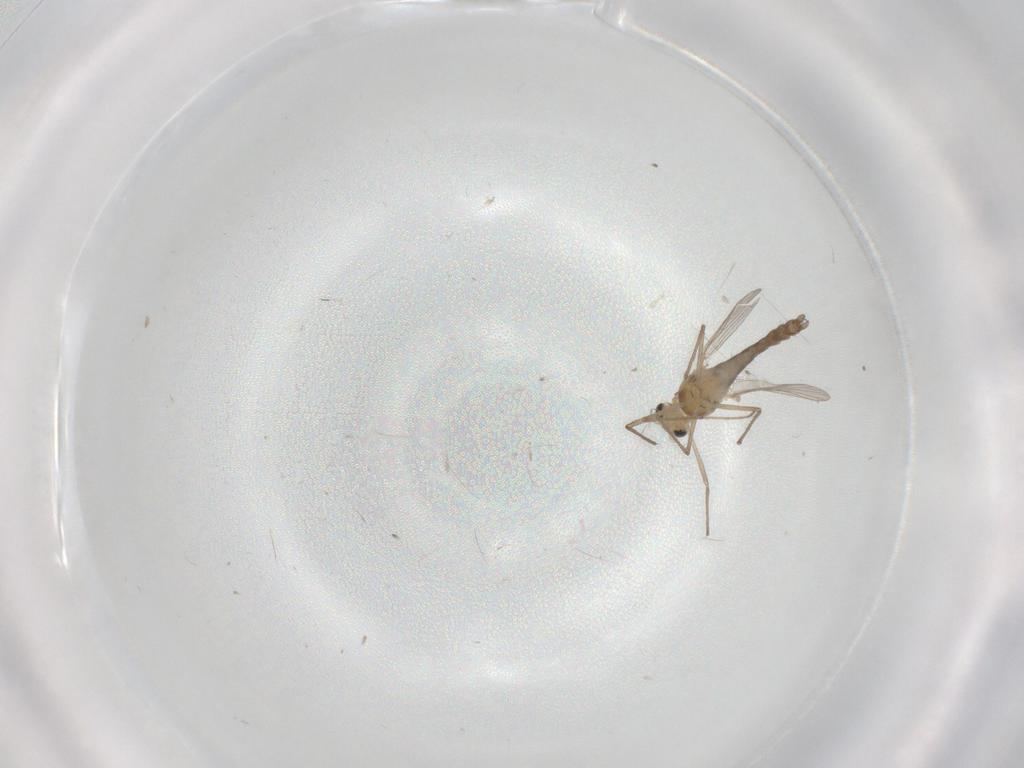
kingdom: Animalia
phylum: Arthropoda
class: Insecta
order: Diptera
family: Chironomidae
